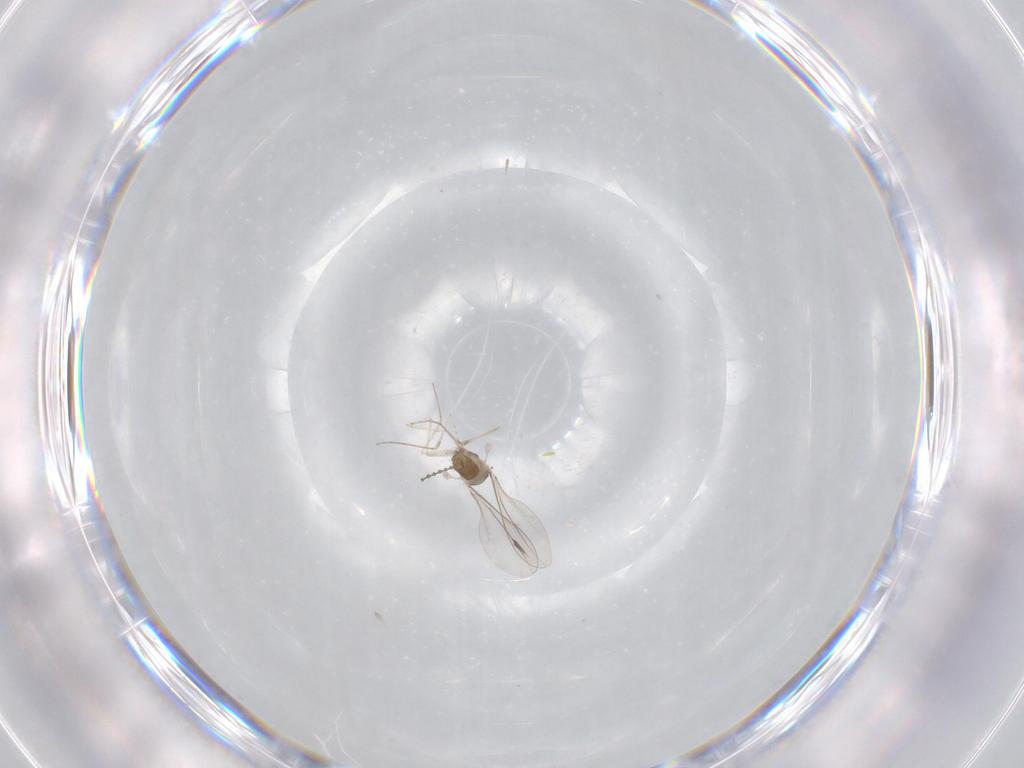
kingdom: Animalia
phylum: Arthropoda
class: Insecta
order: Diptera
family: Cecidomyiidae
